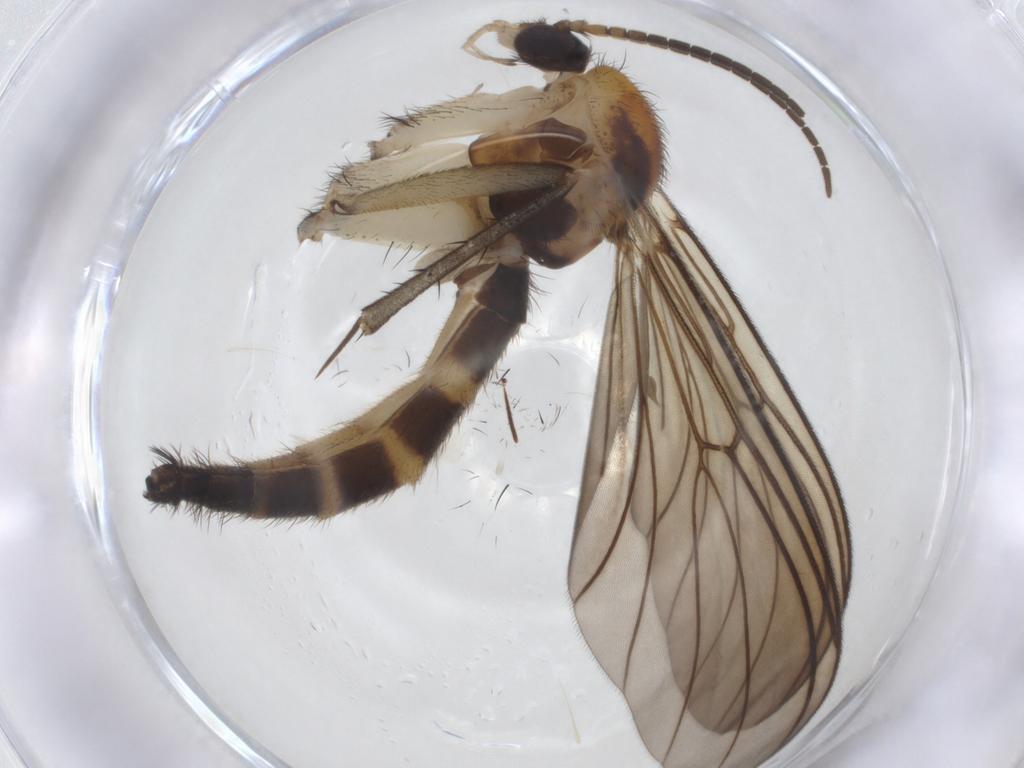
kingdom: Animalia
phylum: Arthropoda
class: Insecta
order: Diptera
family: Mycetophilidae
